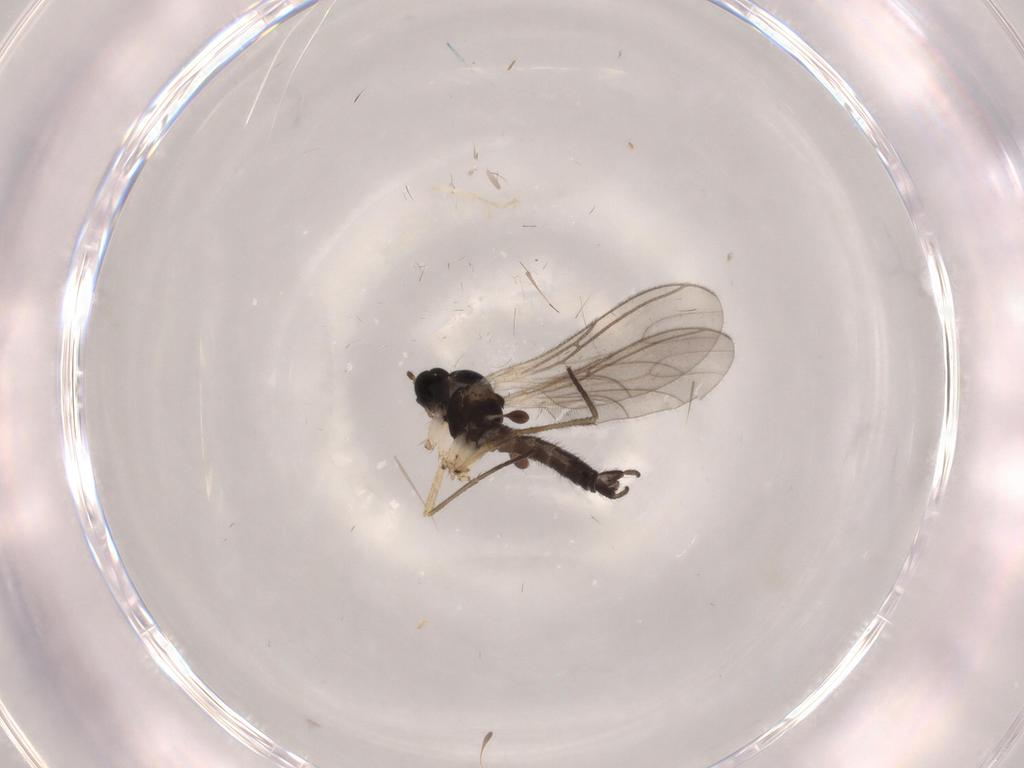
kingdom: Animalia
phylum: Arthropoda
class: Insecta
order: Diptera
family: Sciaridae
